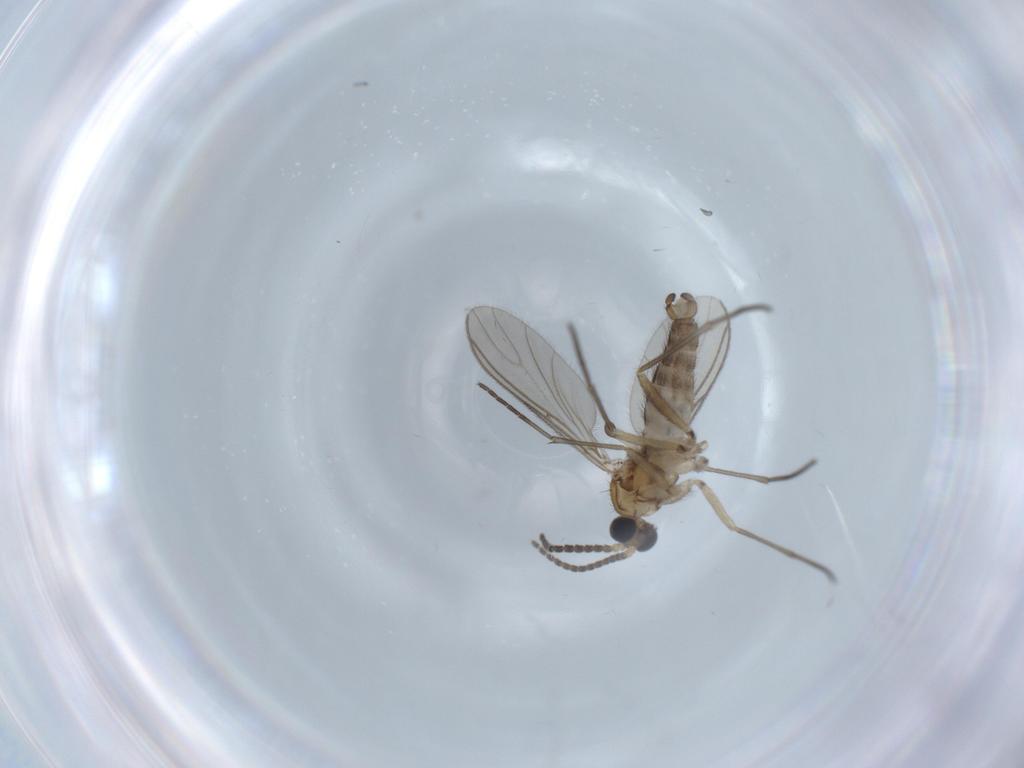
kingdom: Animalia
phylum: Arthropoda
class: Insecta
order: Diptera
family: Sciaridae
